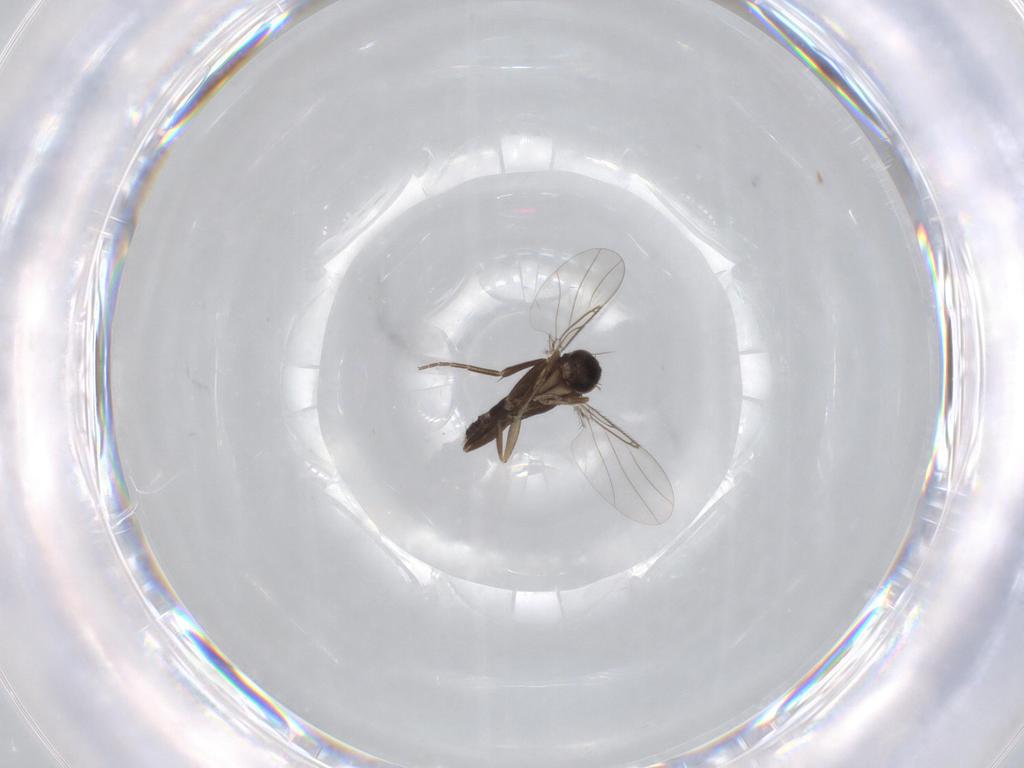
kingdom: Animalia
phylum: Arthropoda
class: Insecta
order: Diptera
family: Phoridae
